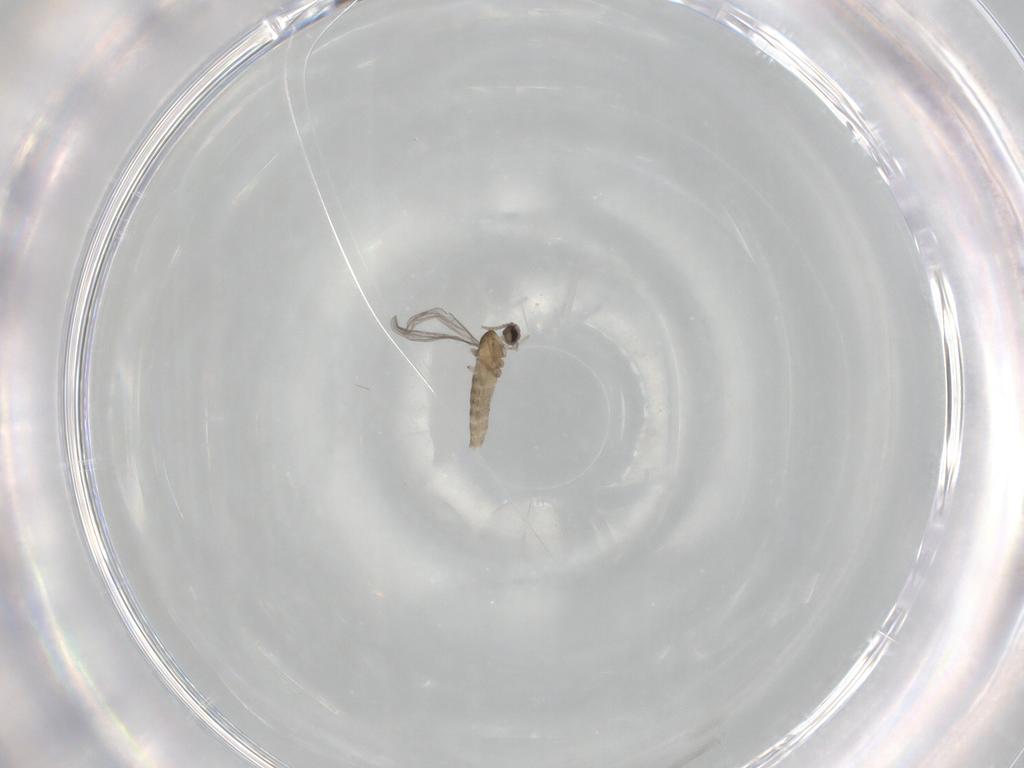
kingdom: Animalia
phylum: Arthropoda
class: Insecta
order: Diptera
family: Cecidomyiidae
